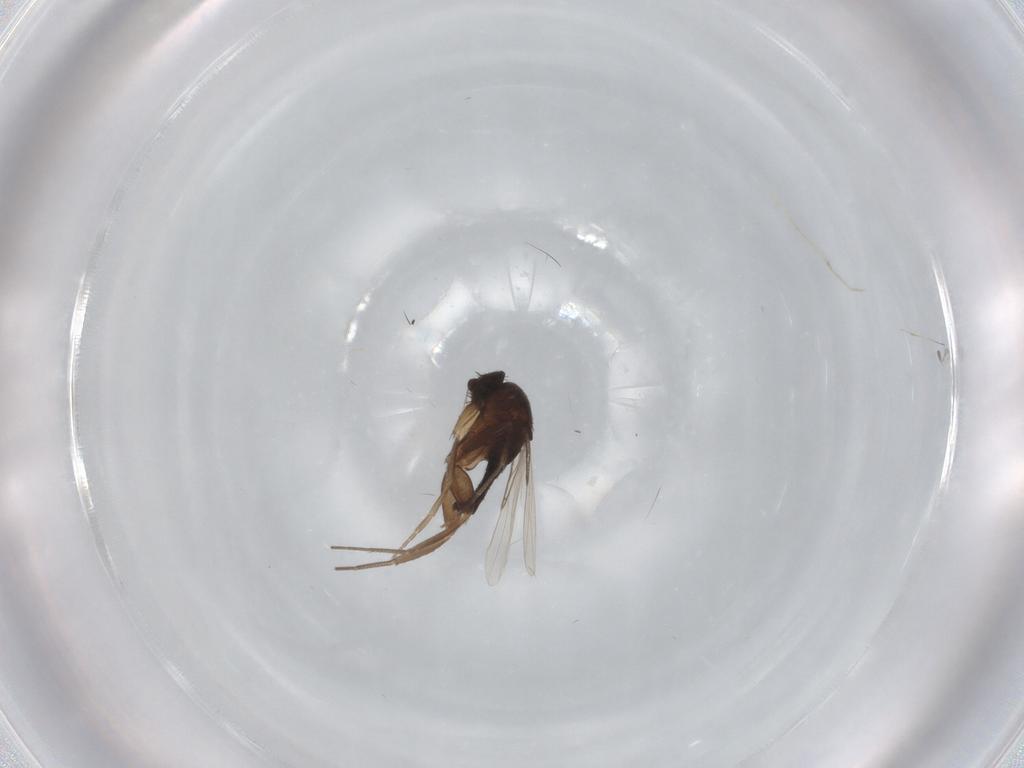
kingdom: Animalia
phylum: Arthropoda
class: Insecta
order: Diptera
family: Phoridae
